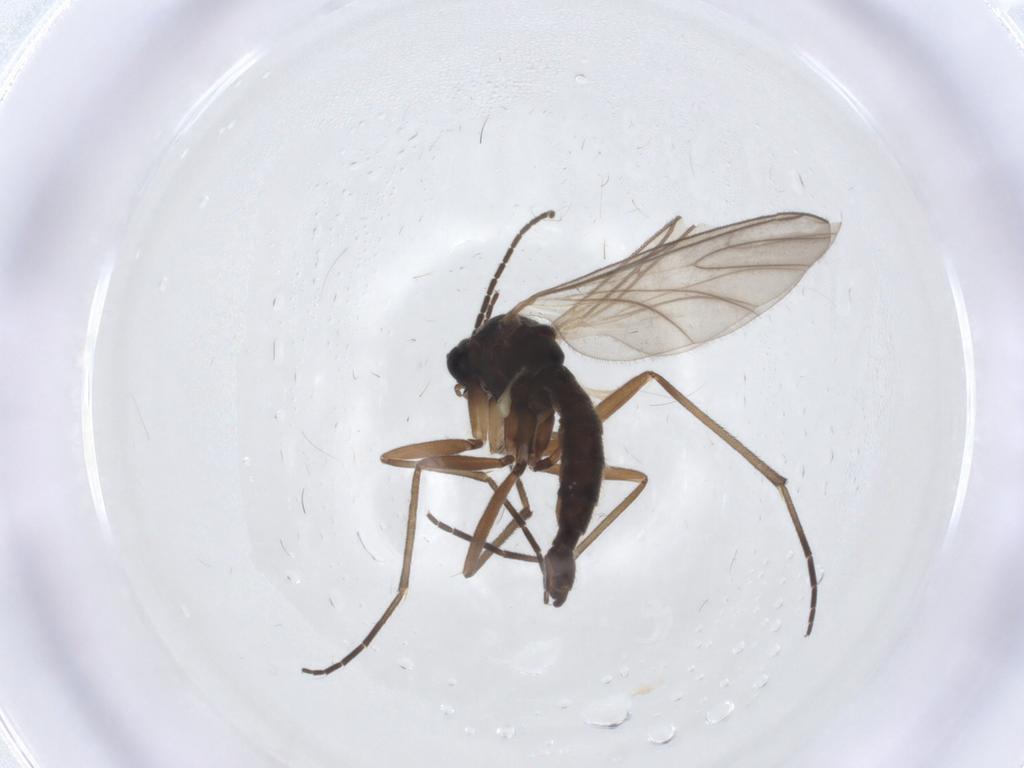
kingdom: Animalia
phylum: Arthropoda
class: Insecta
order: Diptera
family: Sciaridae
